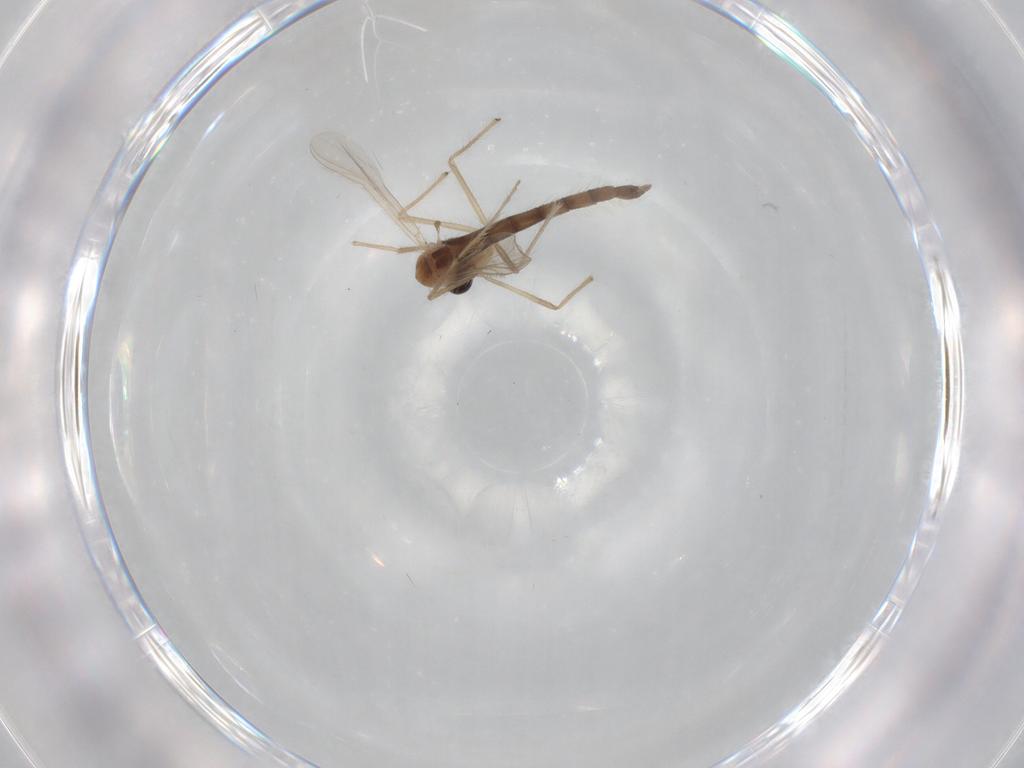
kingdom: Animalia
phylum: Arthropoda
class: Insecta
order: Diptera
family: Chironomidae
